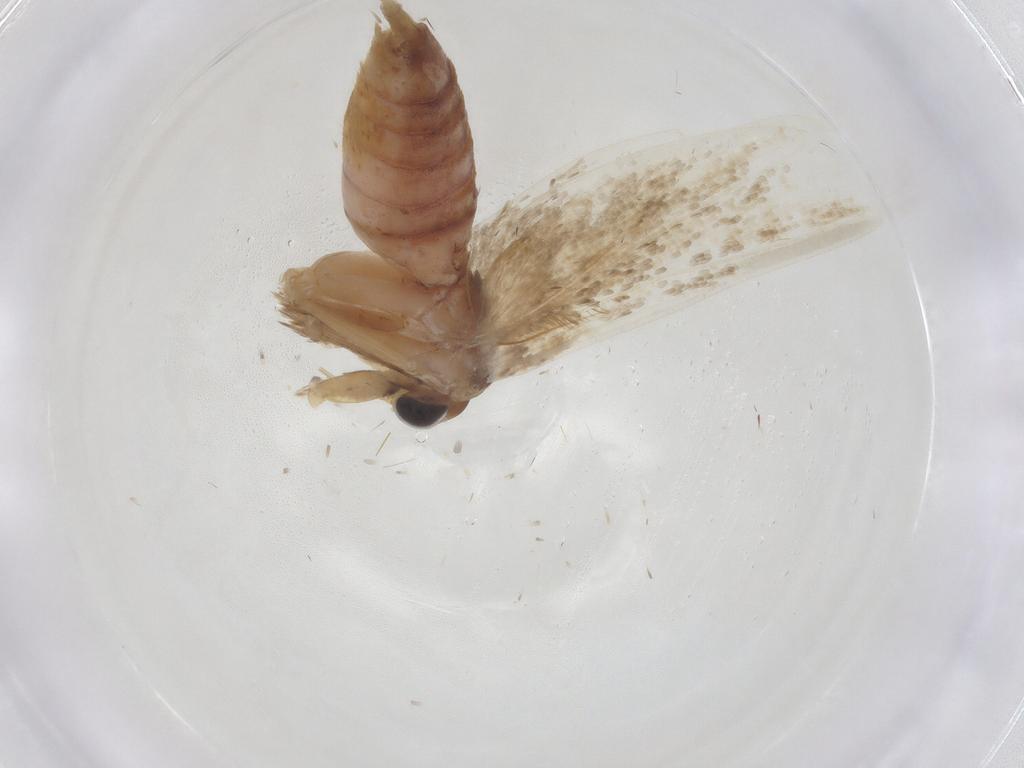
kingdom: Animalia
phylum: Arthropoda
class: Insecta
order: Lepidoptera
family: Blastobasidae
